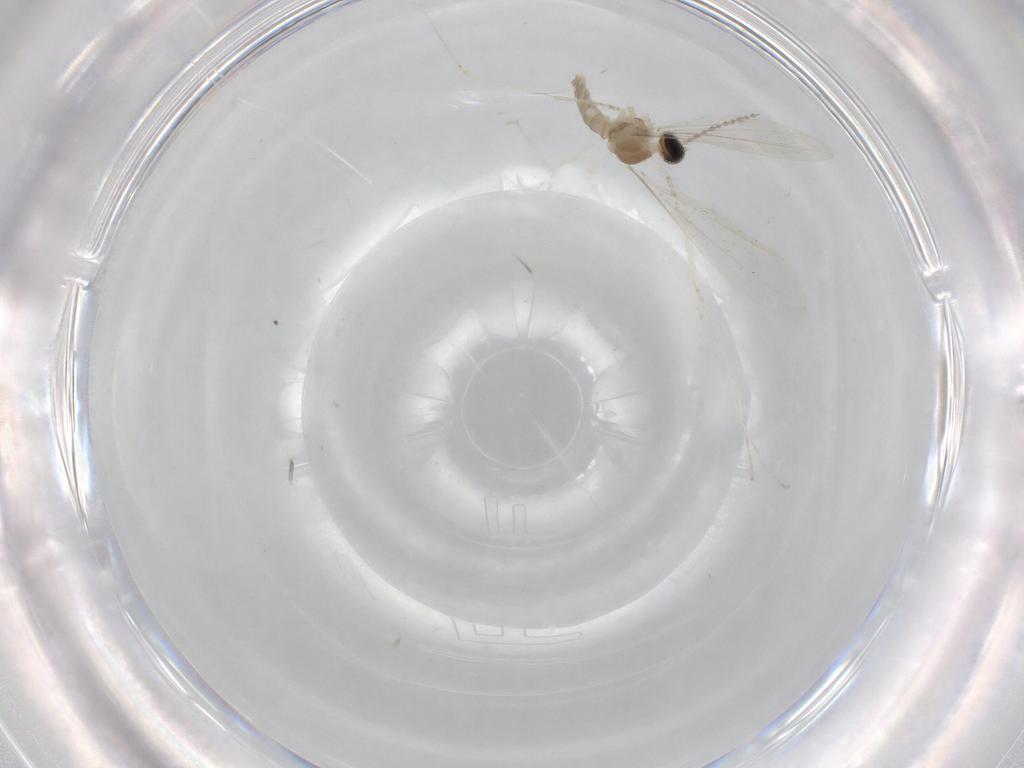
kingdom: Animalia
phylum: Arthropoda
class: Insecta
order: Diptera
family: Cecidomyiidae
